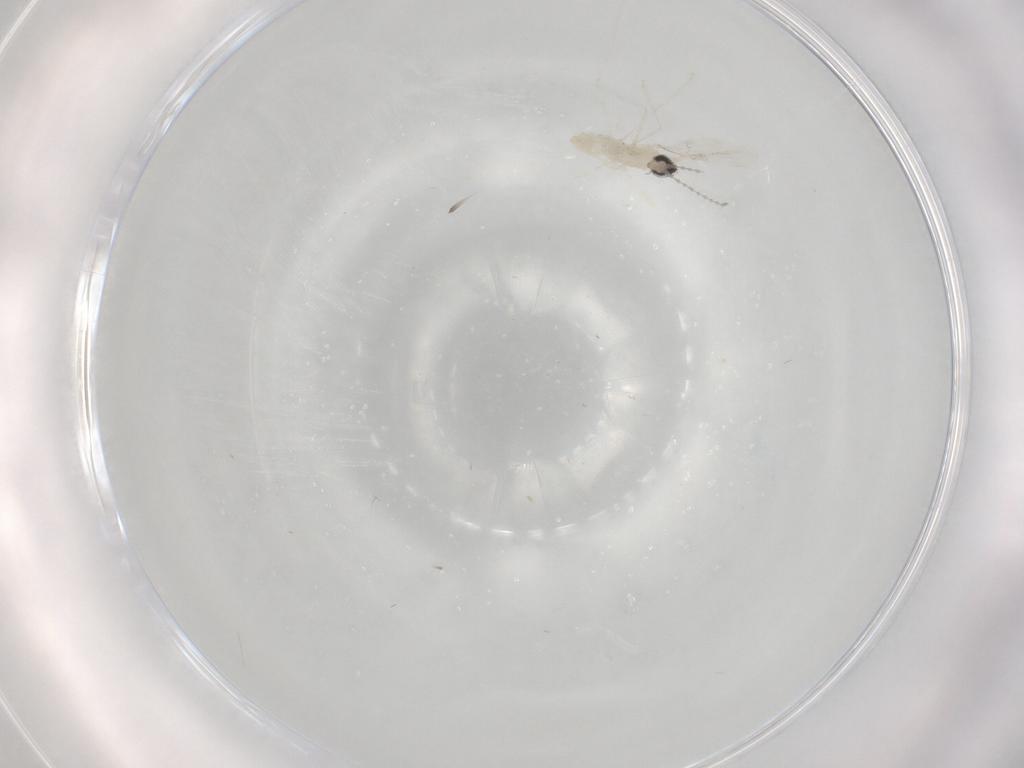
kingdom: Animalia
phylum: Arthropoda
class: Insecta
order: Diptera
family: Cecidomyiidae
